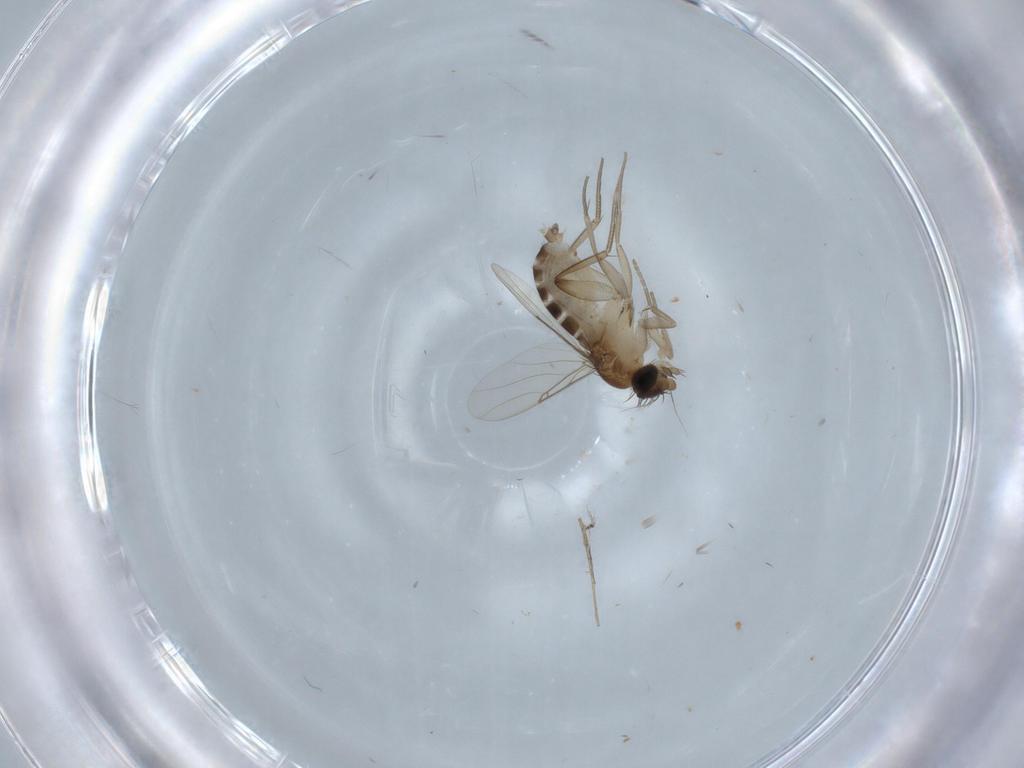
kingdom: Animalia
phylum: Arthropoda
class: Insecta
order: Diptera
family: Phoridae
